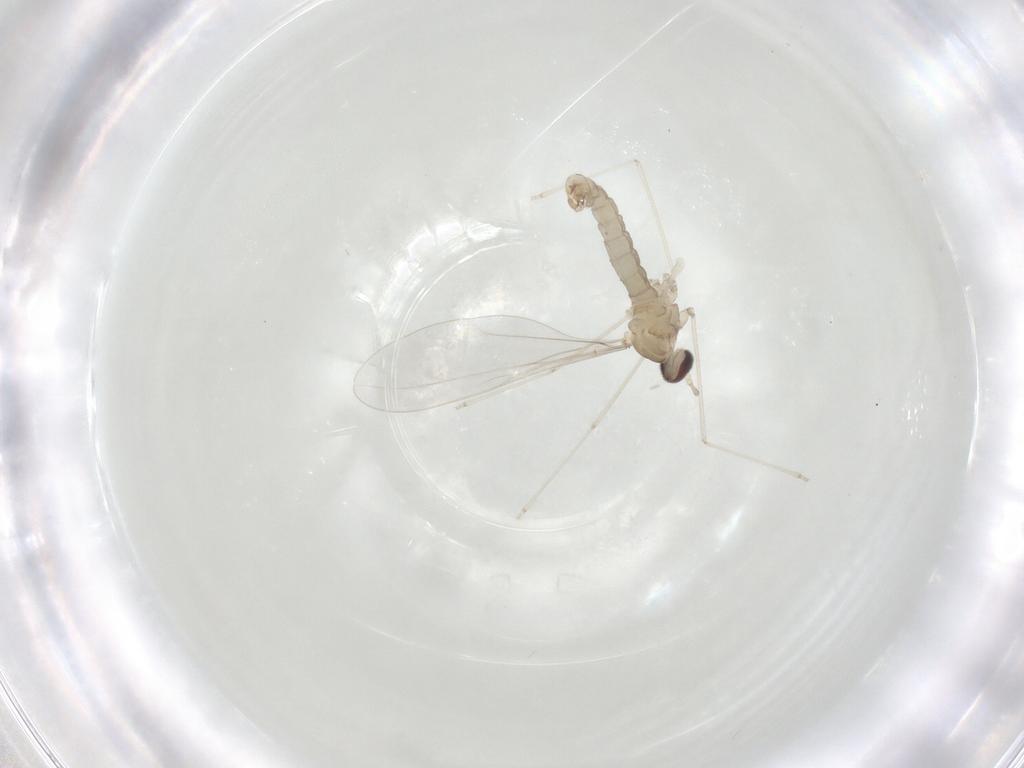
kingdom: Animalia
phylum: Arthropoda
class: Insecta
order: Diptera
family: Cecidomyiidae
